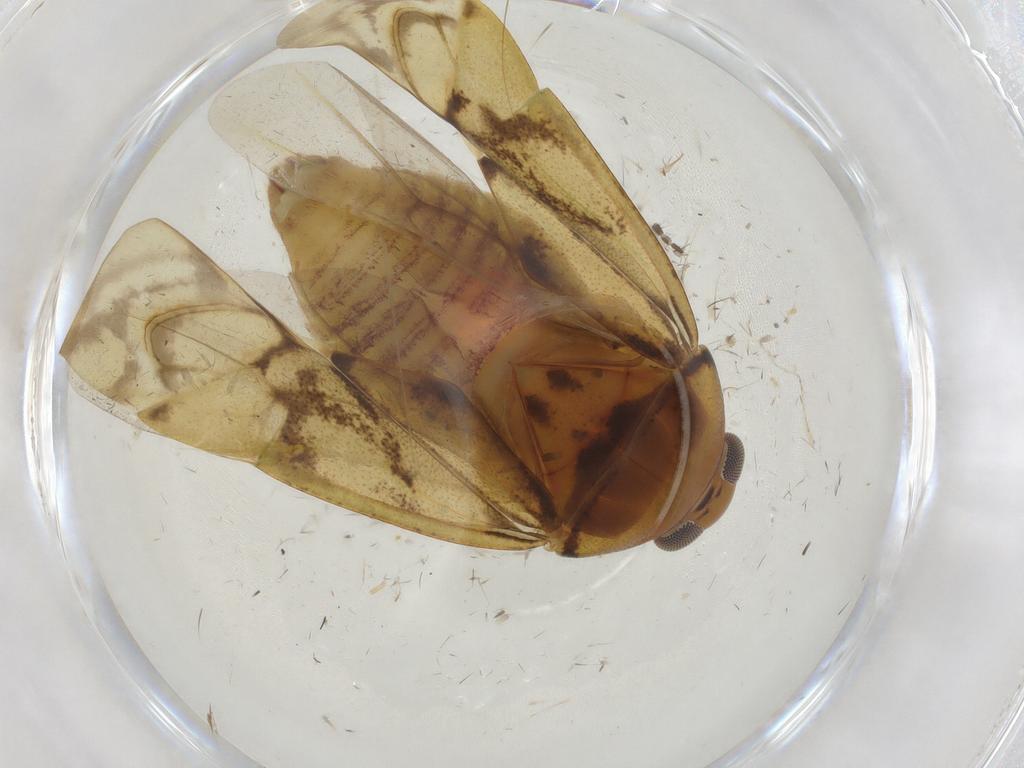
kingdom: Animalia
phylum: Arthropoda
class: Insecta
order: Hemiptera
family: Miridae
